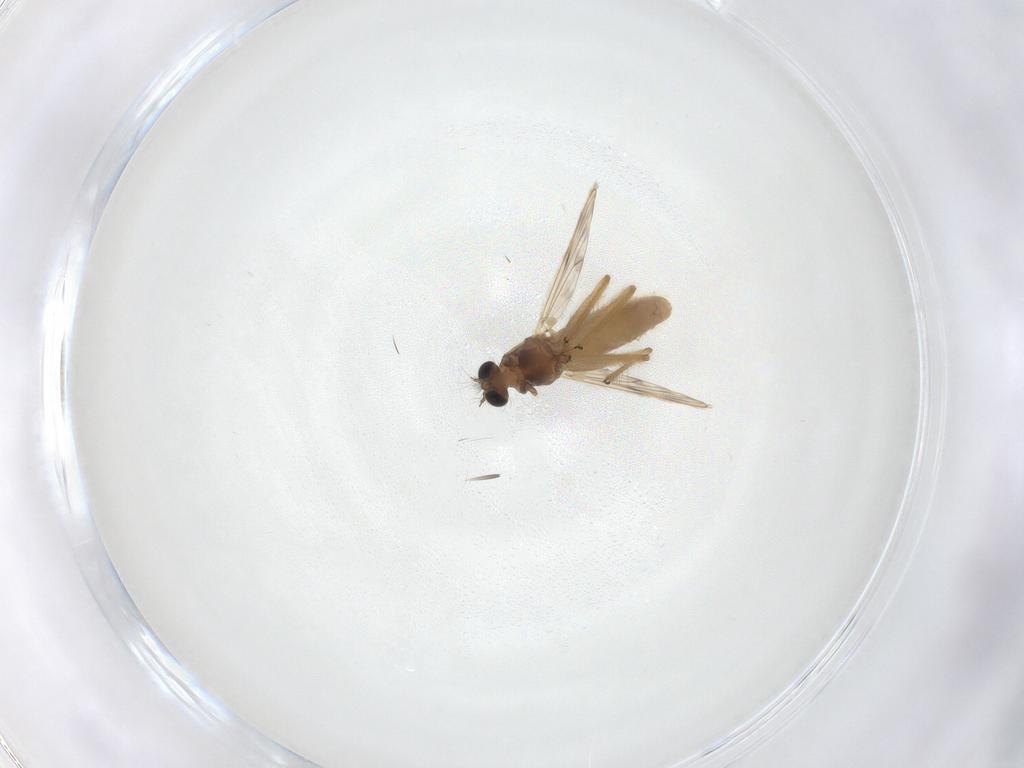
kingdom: Animalia
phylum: Arthropoda
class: Insecta
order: Diptera
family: Chironomidae
